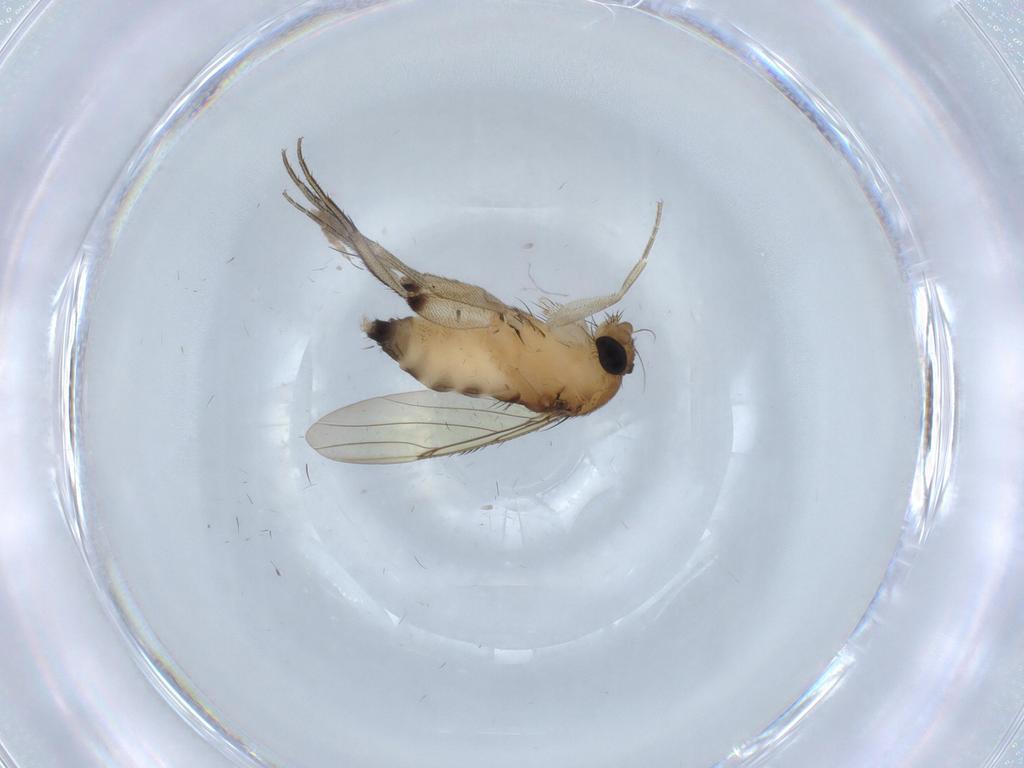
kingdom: Animalia
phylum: Arthropoda
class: Insecta
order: Diptera
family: Phoridae
